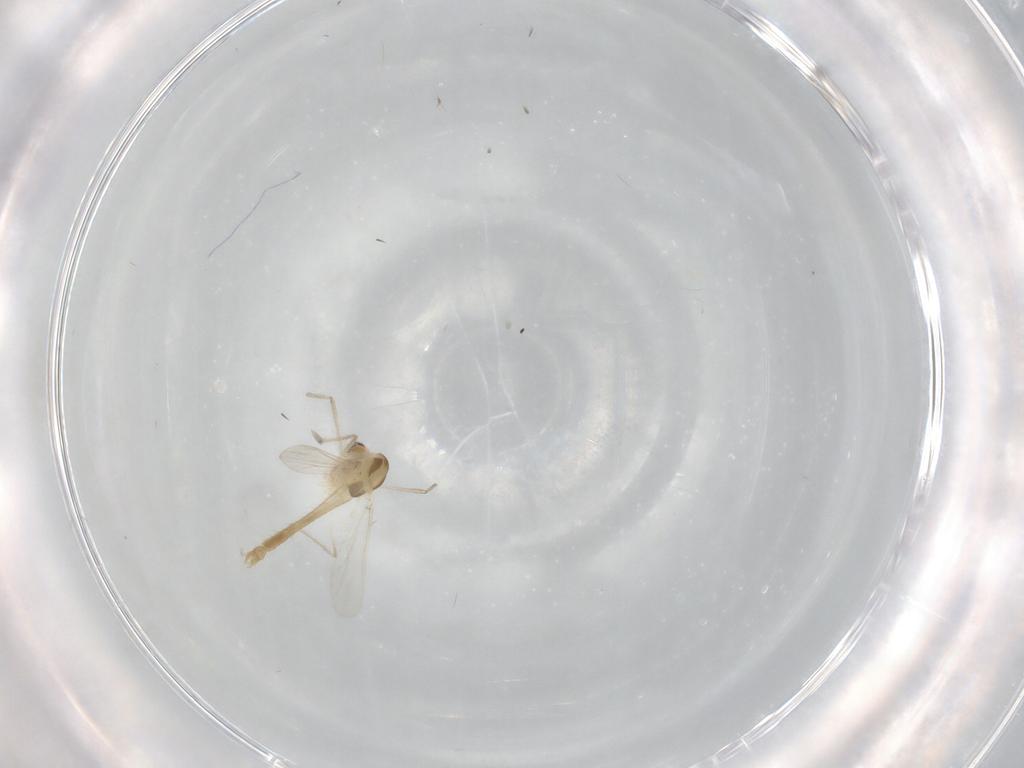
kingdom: Animalia
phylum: Arthropoda
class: Insecta
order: Diptera
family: Chironomidae
